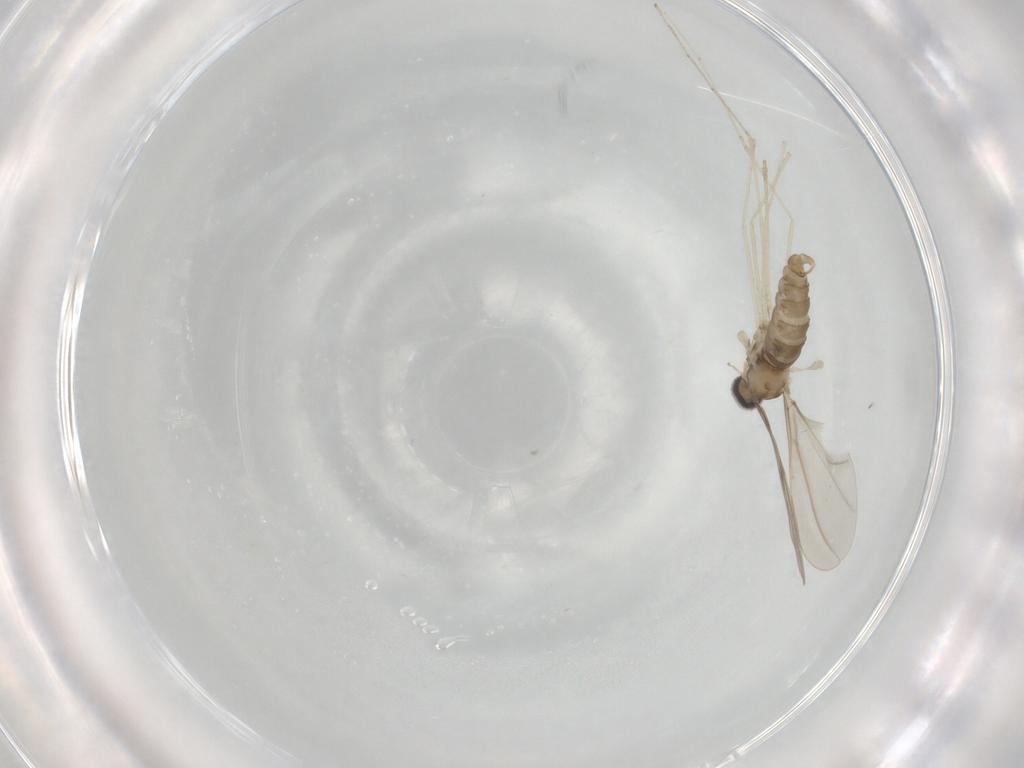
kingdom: Animalia
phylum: Arthropoda
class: Insecta
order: Diptera
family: Cecidomyiidae
